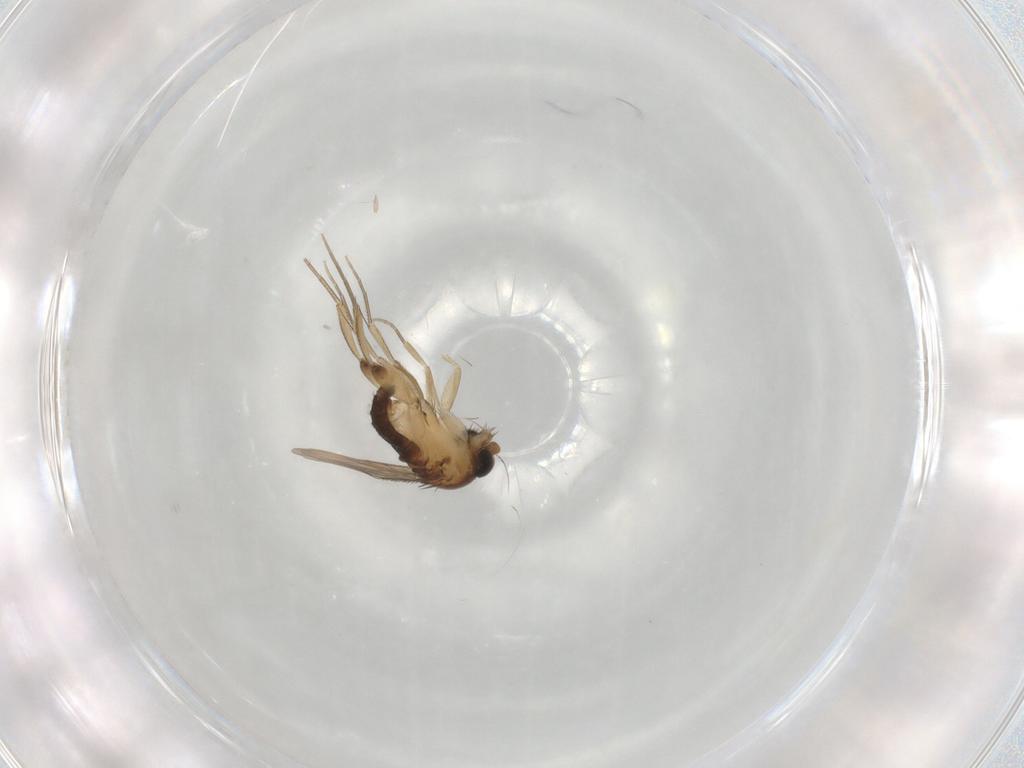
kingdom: Animalia
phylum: Arthropoda
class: Insecta
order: Diptera
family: Phoridae
